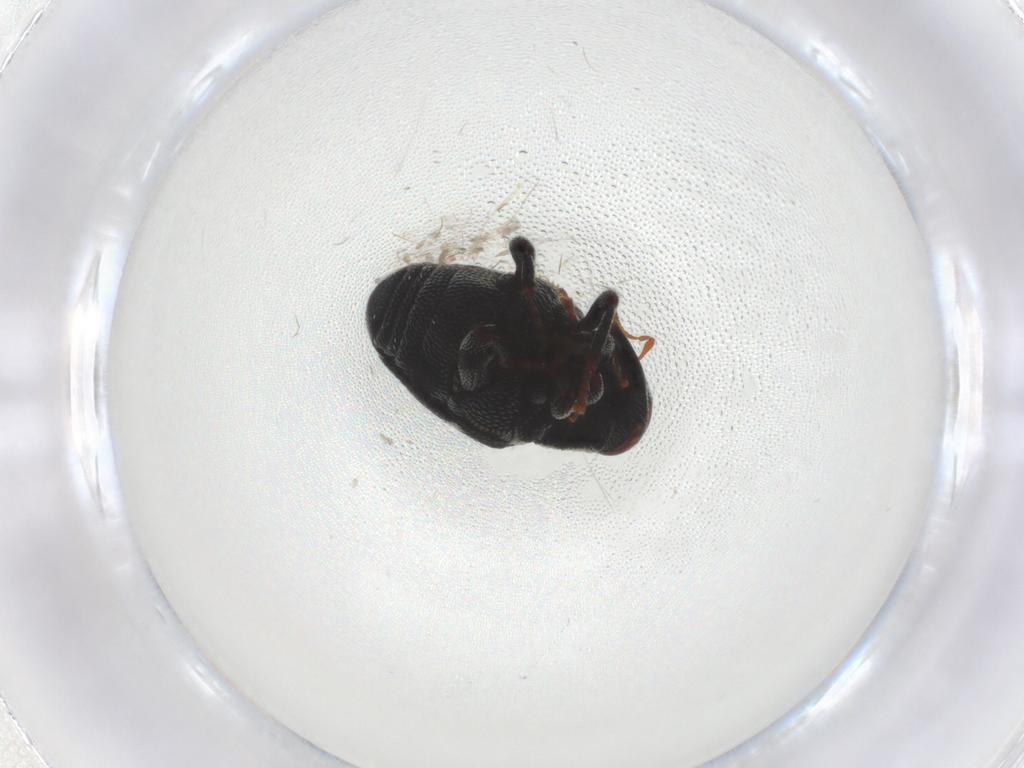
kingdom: Animalia
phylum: Arthropoda
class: Insecta
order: Coleoptera
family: Curculionidae
